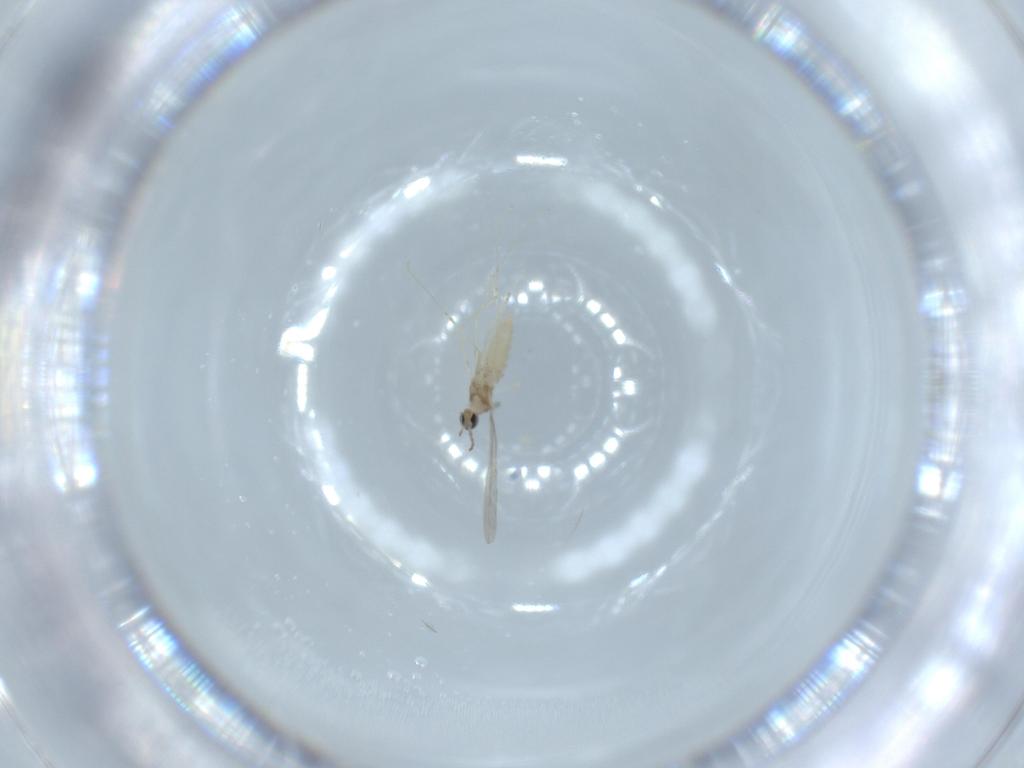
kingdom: Animalia
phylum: Arthropoda
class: Insecta
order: Diptera
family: Cecidomyiidae
